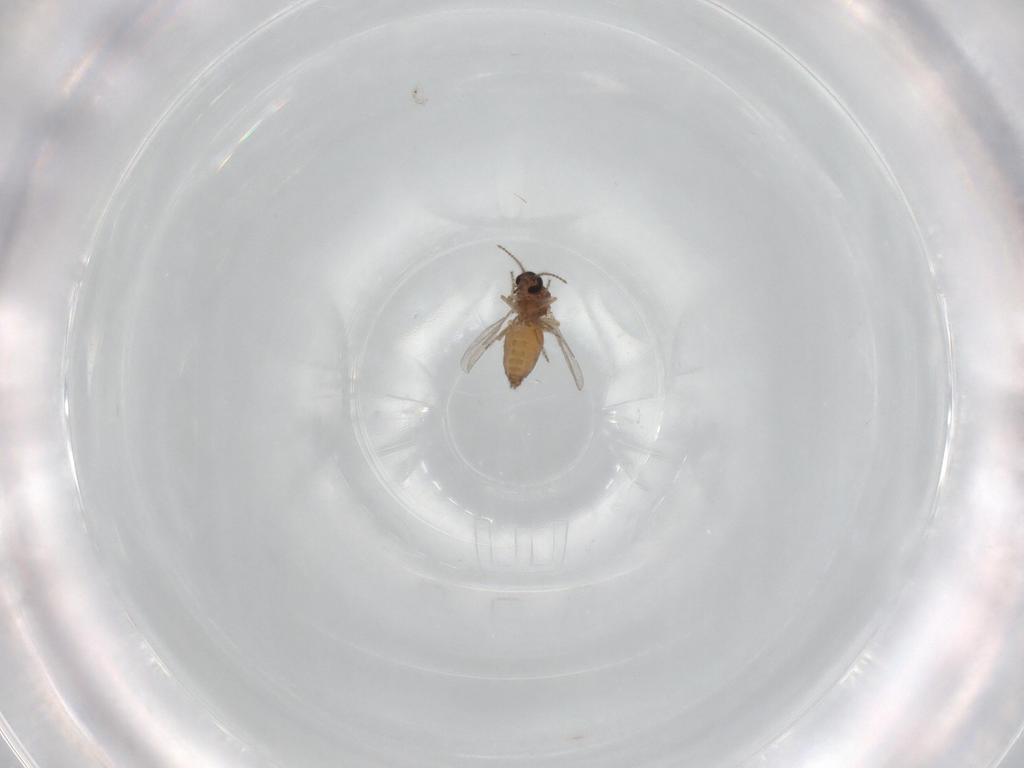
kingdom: Animalia
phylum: Arthropoda
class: Insecta
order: Diptera
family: Ceratopogonidae
